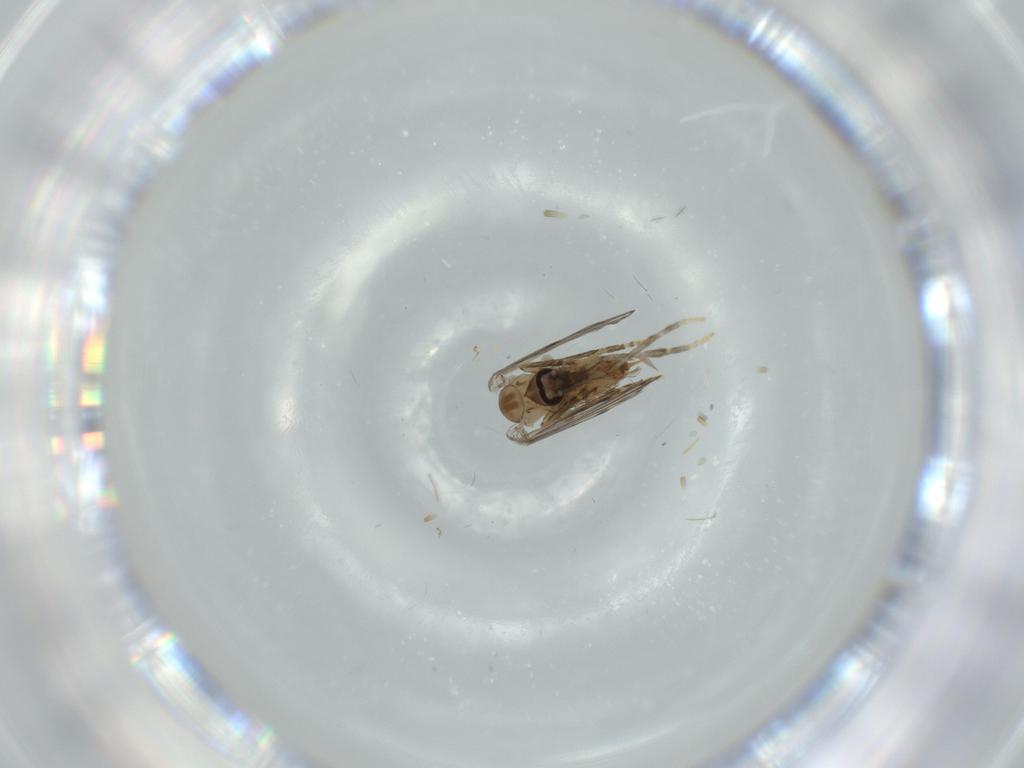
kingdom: Animalia
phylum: Arthropoda
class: Insecta
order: Diptera
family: Psychodidae
